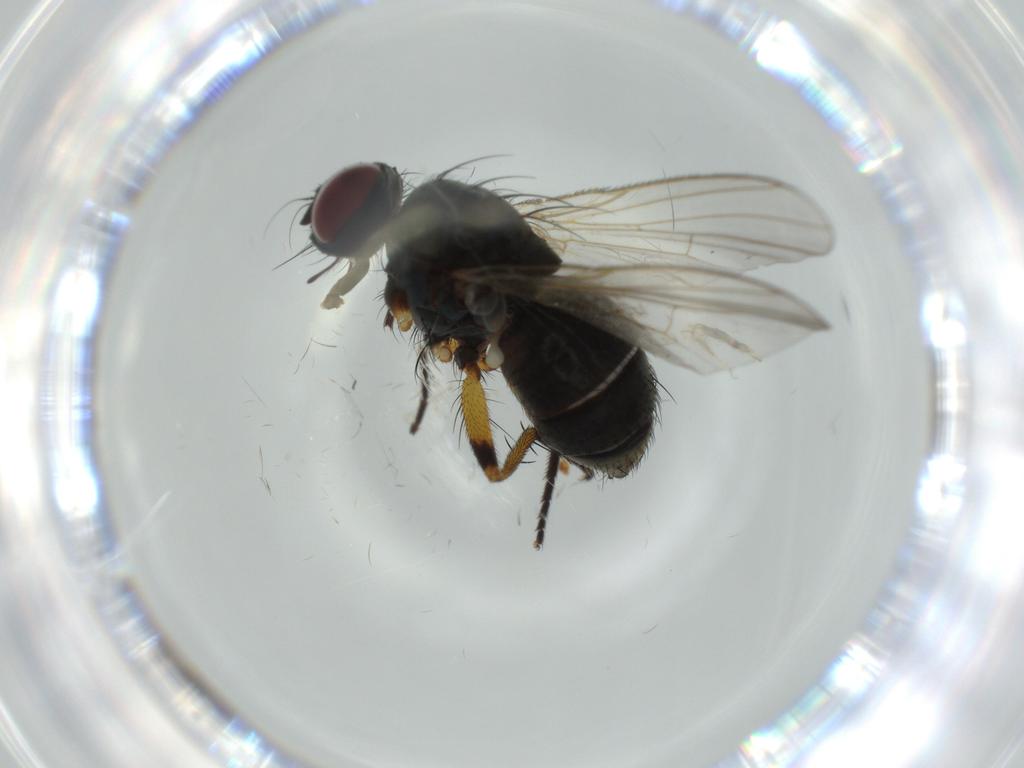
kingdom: Animalia
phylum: Arthropoda
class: Insecta
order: Diptera
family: Muscidae
